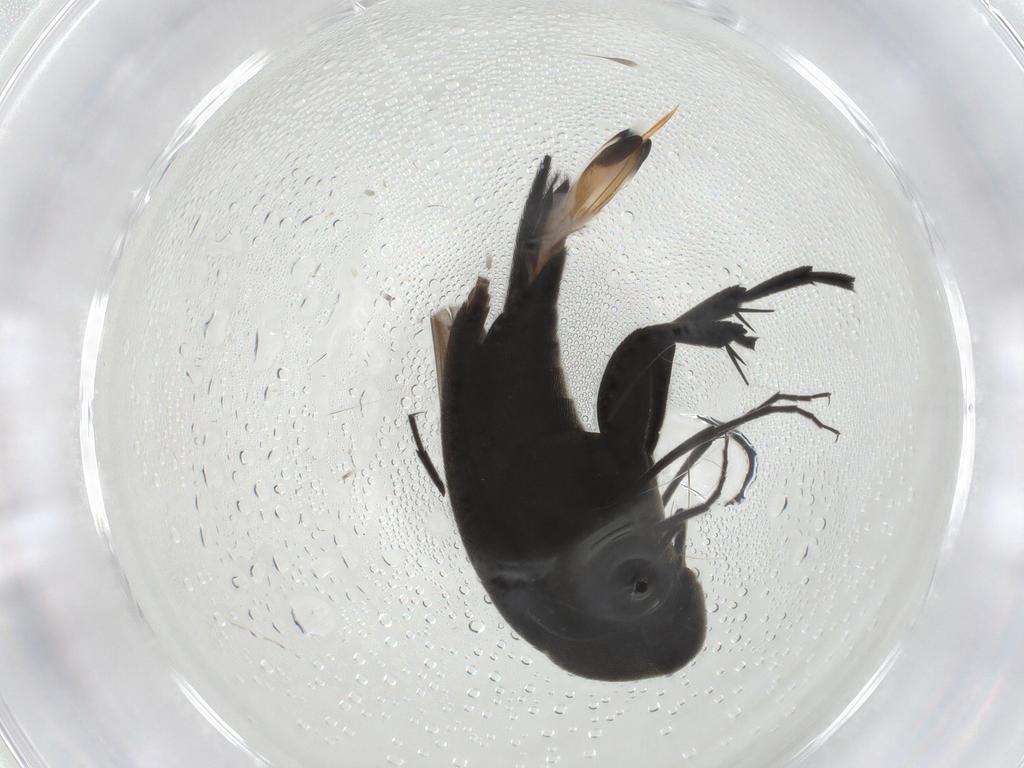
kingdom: Animalia
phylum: Arthropoda
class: Insecta
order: Coleoptera
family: Mordellidae
